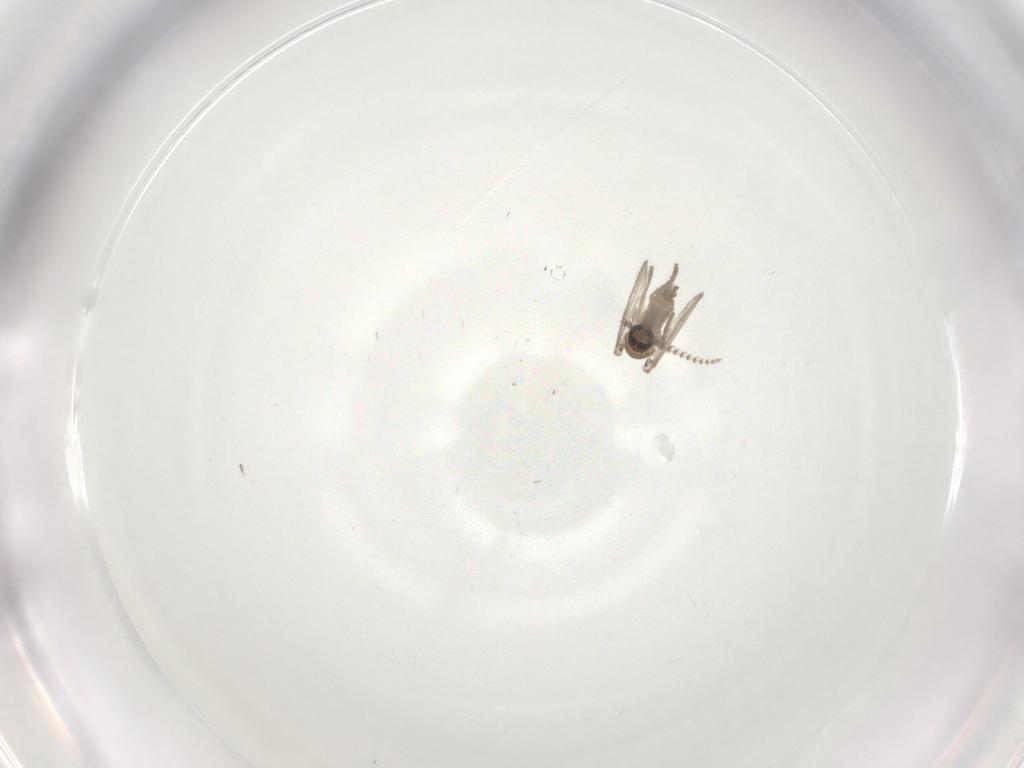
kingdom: Animalia
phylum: Arthropoda
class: Insecta
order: Diptera
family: Psychodidae
